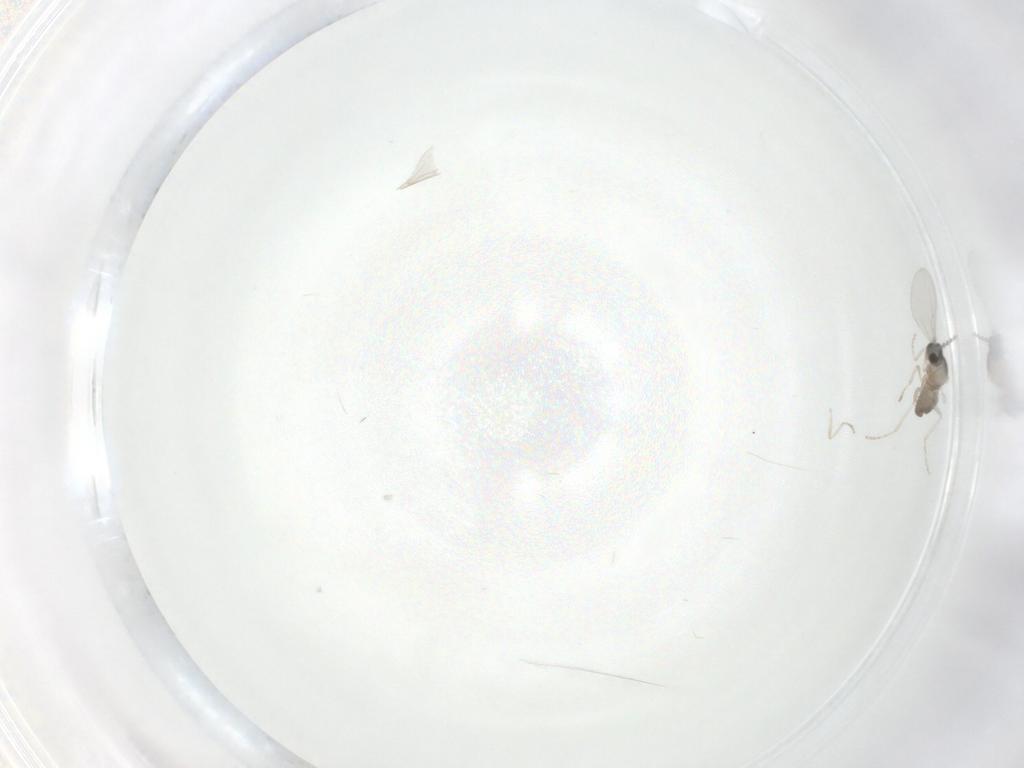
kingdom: Animalia
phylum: Arthropoda
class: Insecta
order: Diptera
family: Cecidomyiidae
